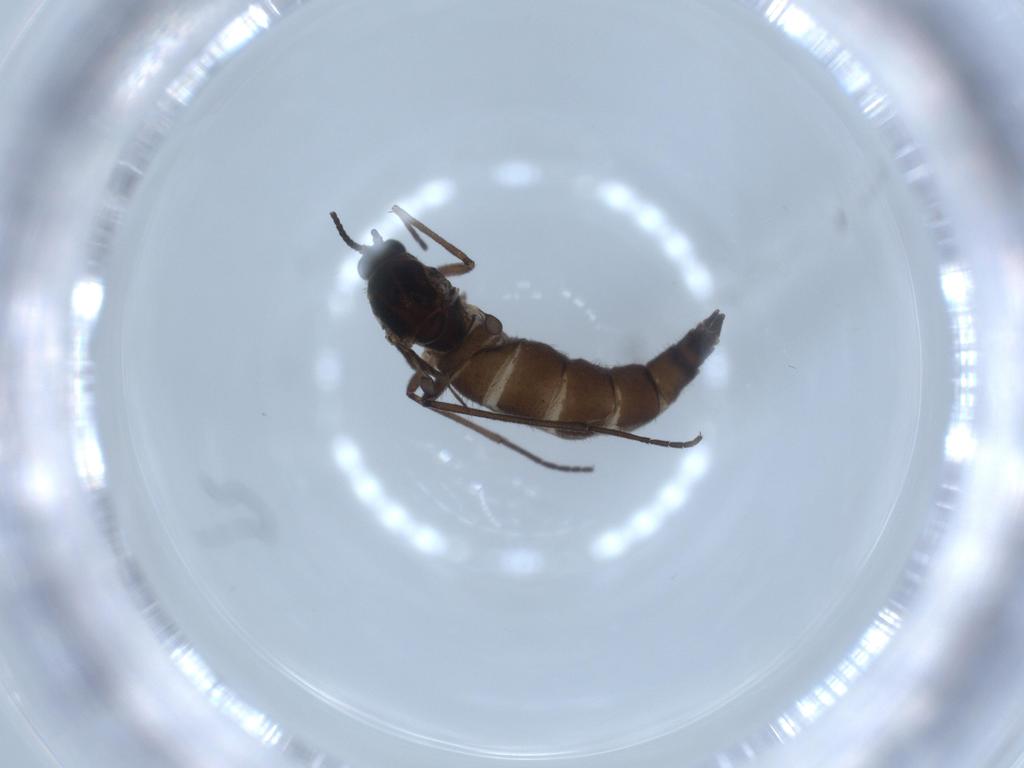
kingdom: Animalia
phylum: Arthropoda
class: Insecta
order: Diptera
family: Sciaridae
